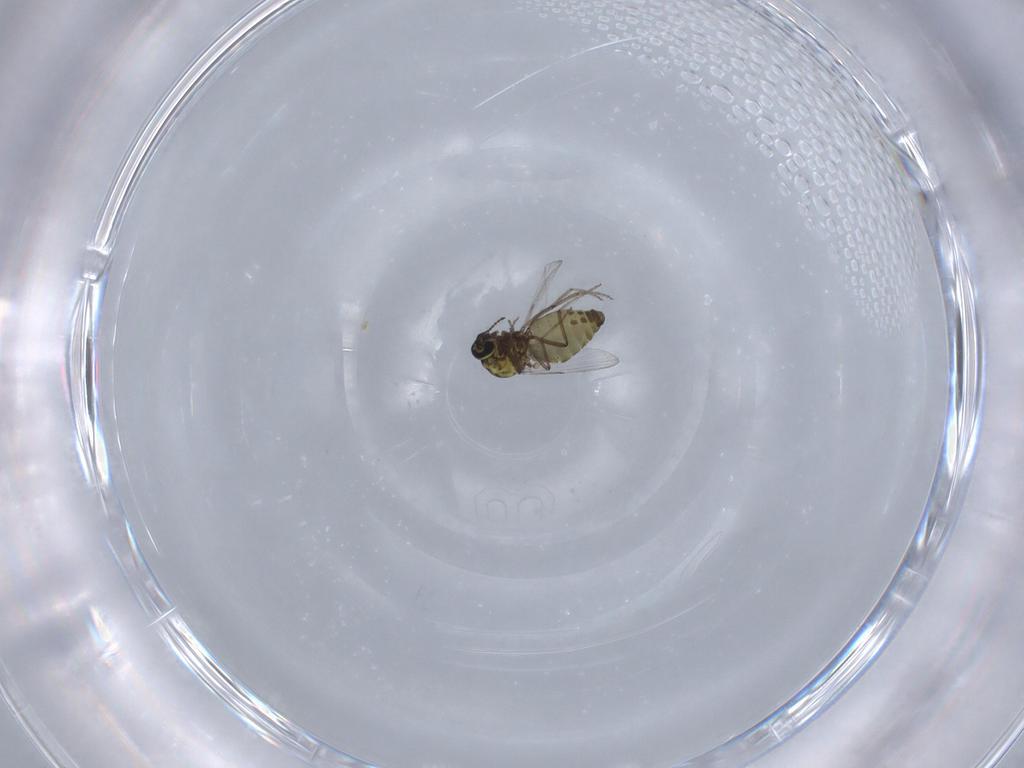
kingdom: Animalia
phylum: Arthropoda
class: Insecta
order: Diptera
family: Ceratopogonidae
